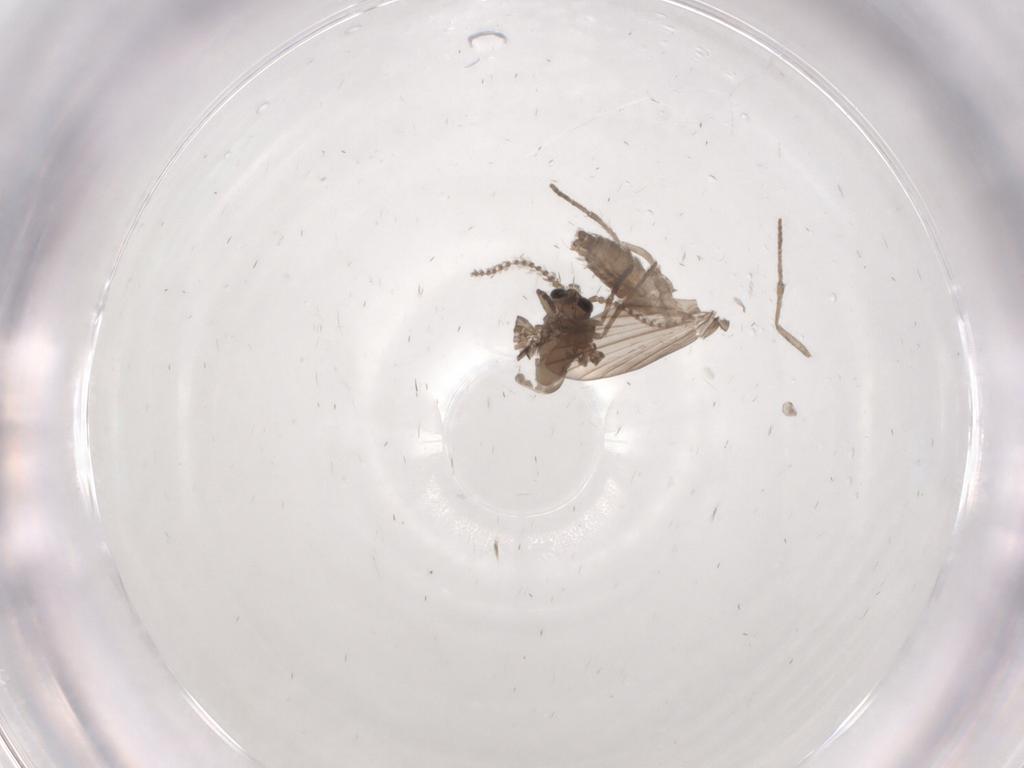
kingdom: Animalia
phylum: Arthropoda
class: Insecta
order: Diptera
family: Psychodidae
